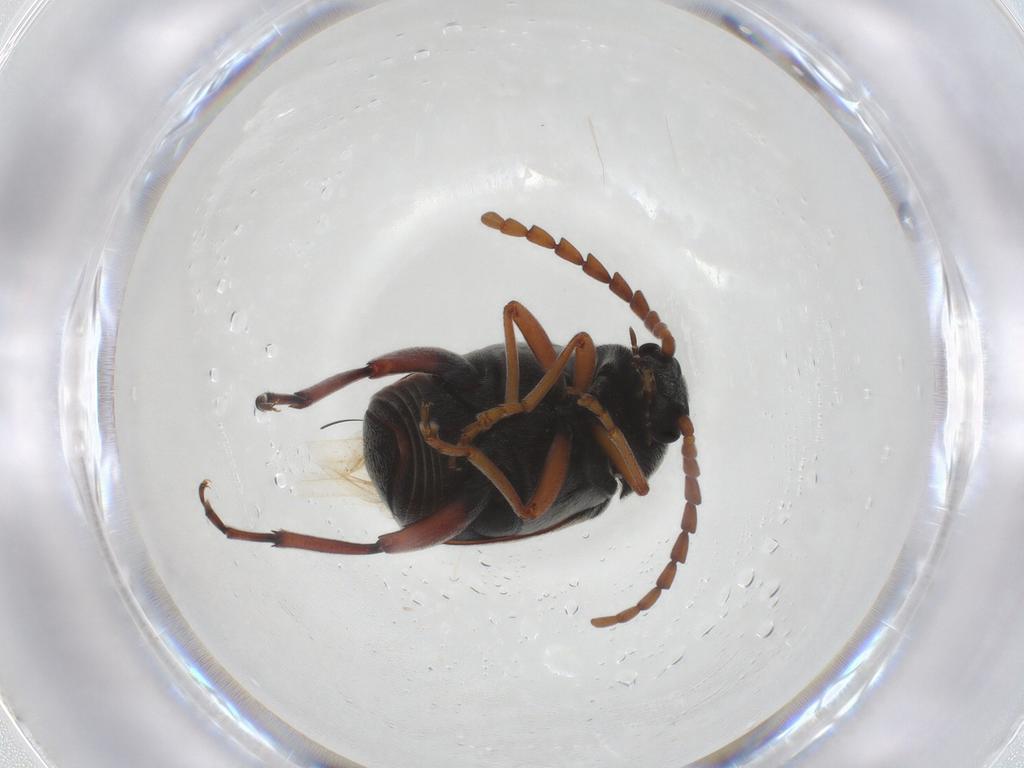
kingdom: Animalia
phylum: Arthropoda
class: Insecta
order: Coleoptera
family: Chrysomelidae
